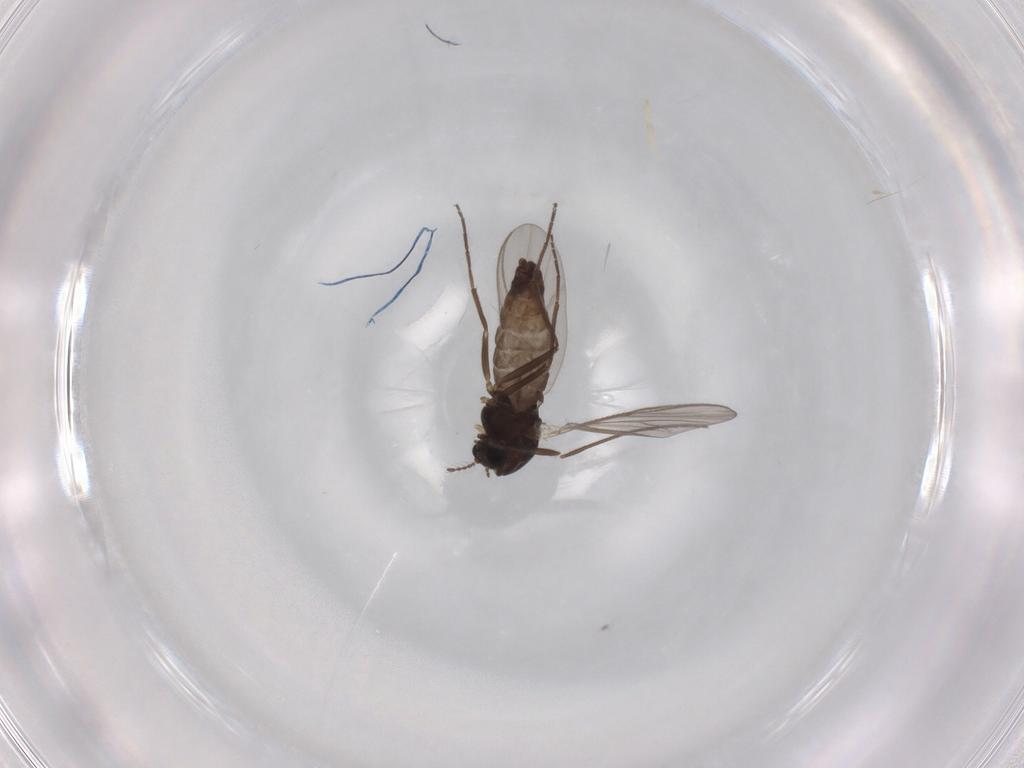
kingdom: Animalia
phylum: Arthropoda
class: Insecta
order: Diptera
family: Chironomidae
